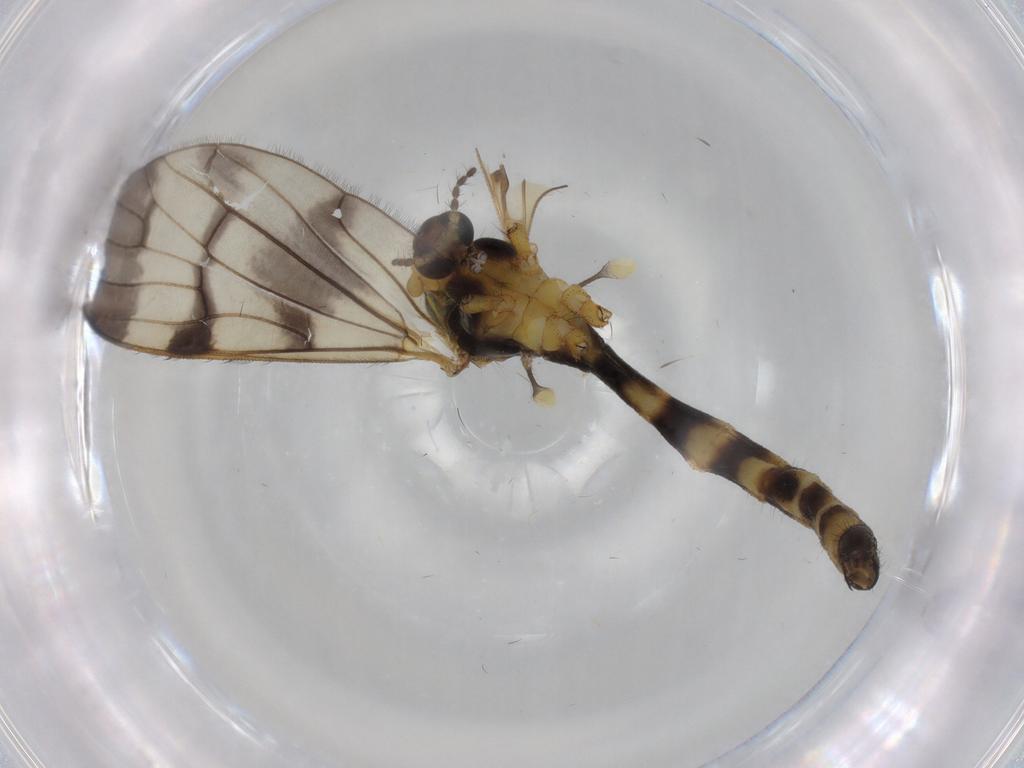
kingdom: Animalia
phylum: Arthropoda
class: Insecta
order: Diptera
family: Limoniidae
